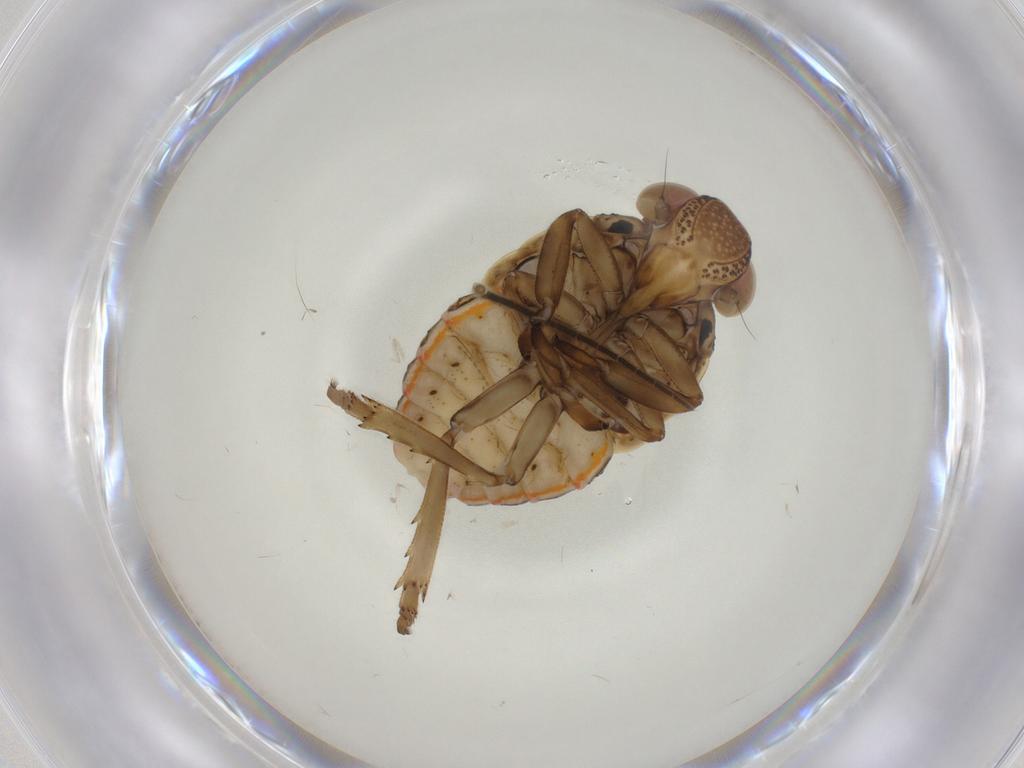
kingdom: Animalia
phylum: Arthropoda
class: Insecta
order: Hemiptera
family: Issidae
